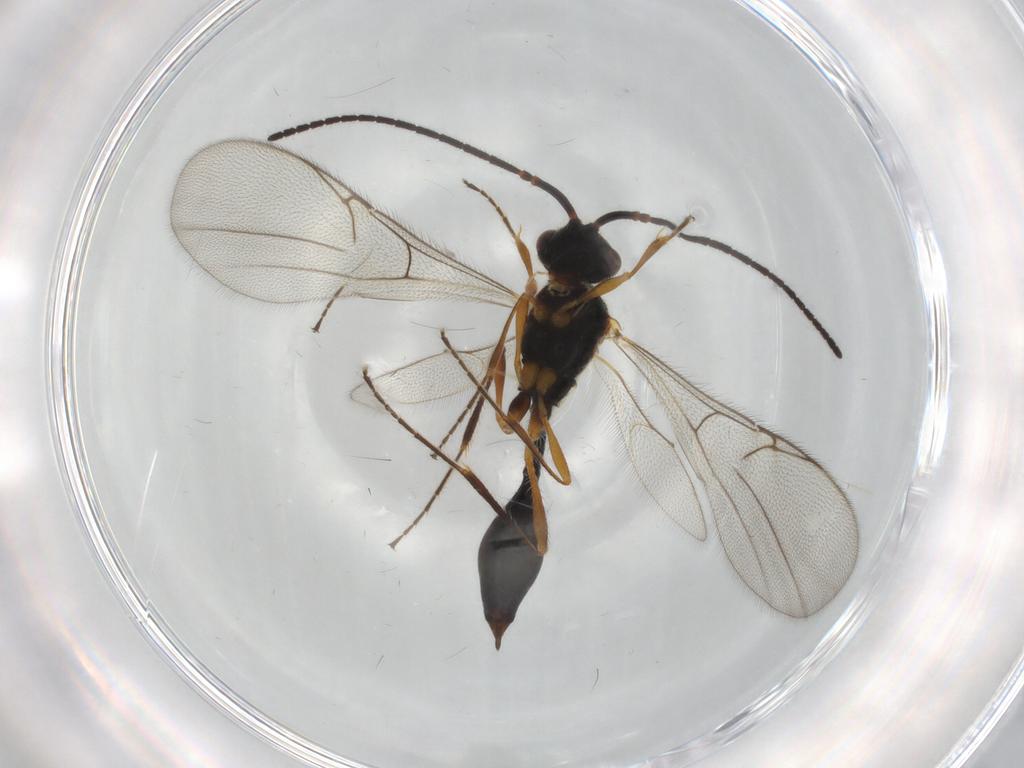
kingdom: Animalia
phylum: Arthropoda
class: Insecta
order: Hymenoptera
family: Diapriidae
